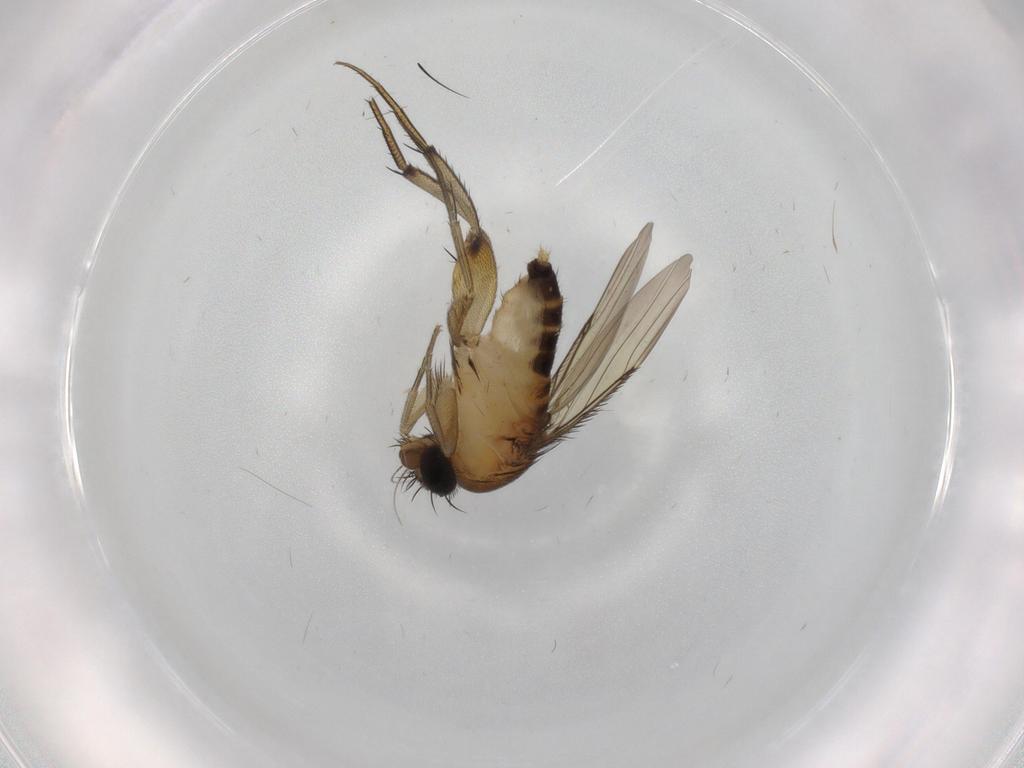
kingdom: Animalia
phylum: Arthropoda
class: Insecta
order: Diptera
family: Phoridae
